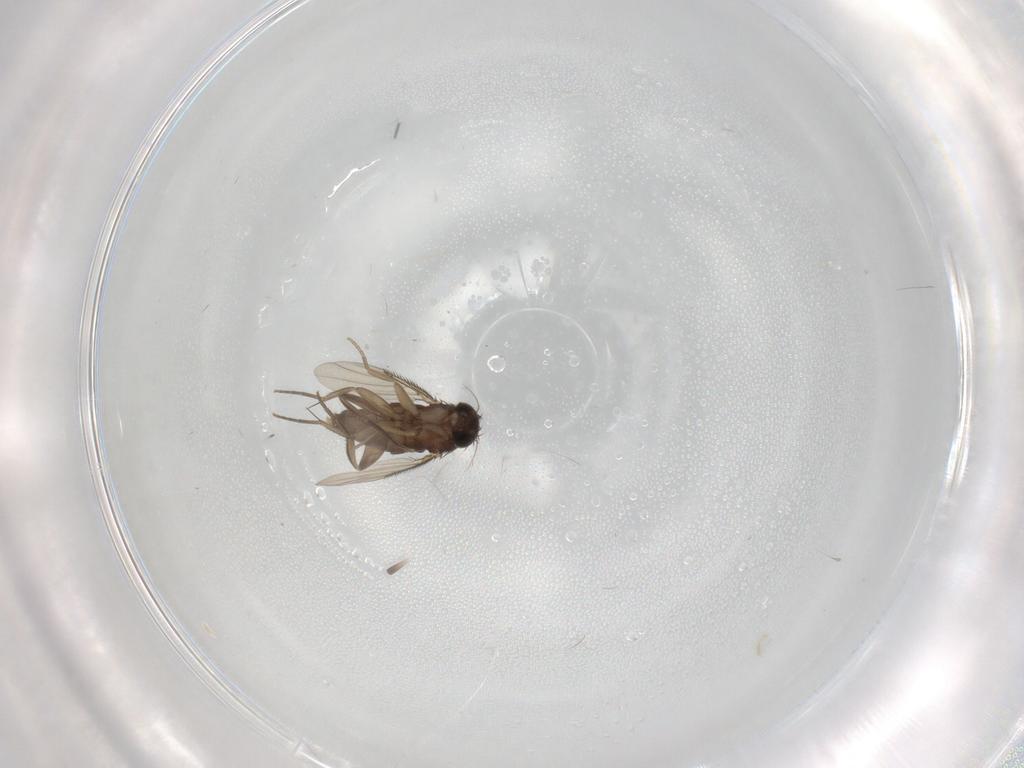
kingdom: Animalia
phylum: Arthropoda
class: Insecta
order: Diptera
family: Phoridae
